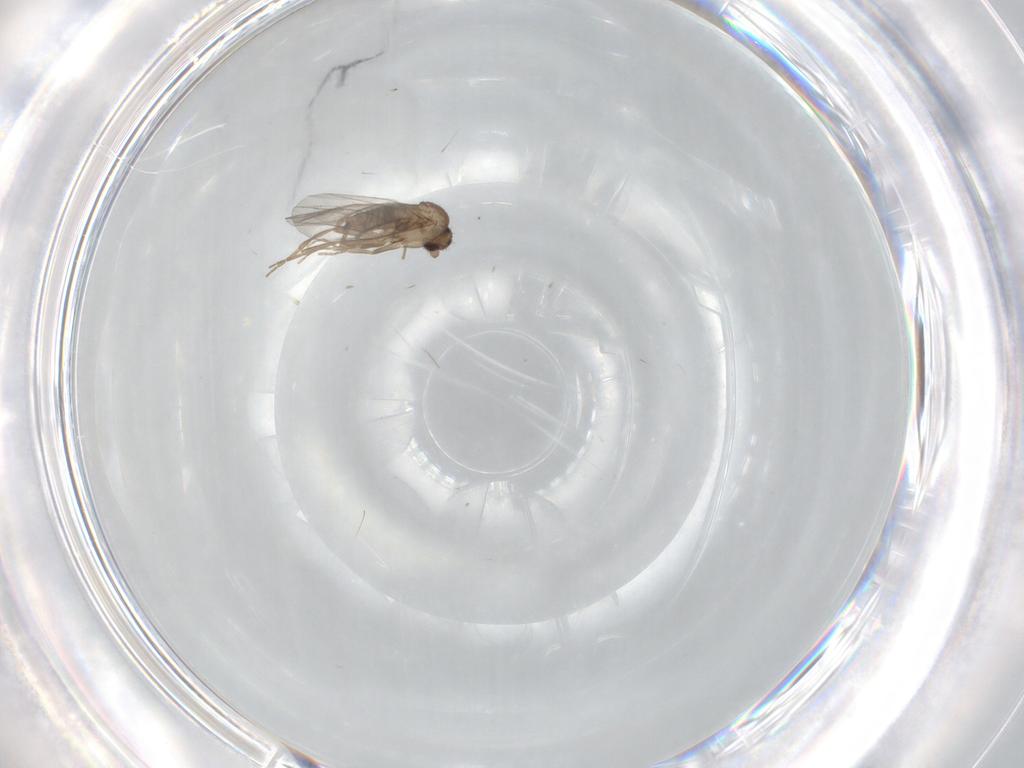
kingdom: Animalia
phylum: Arthropoda
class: Insecta
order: Diptera
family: Cecidomyiidae
